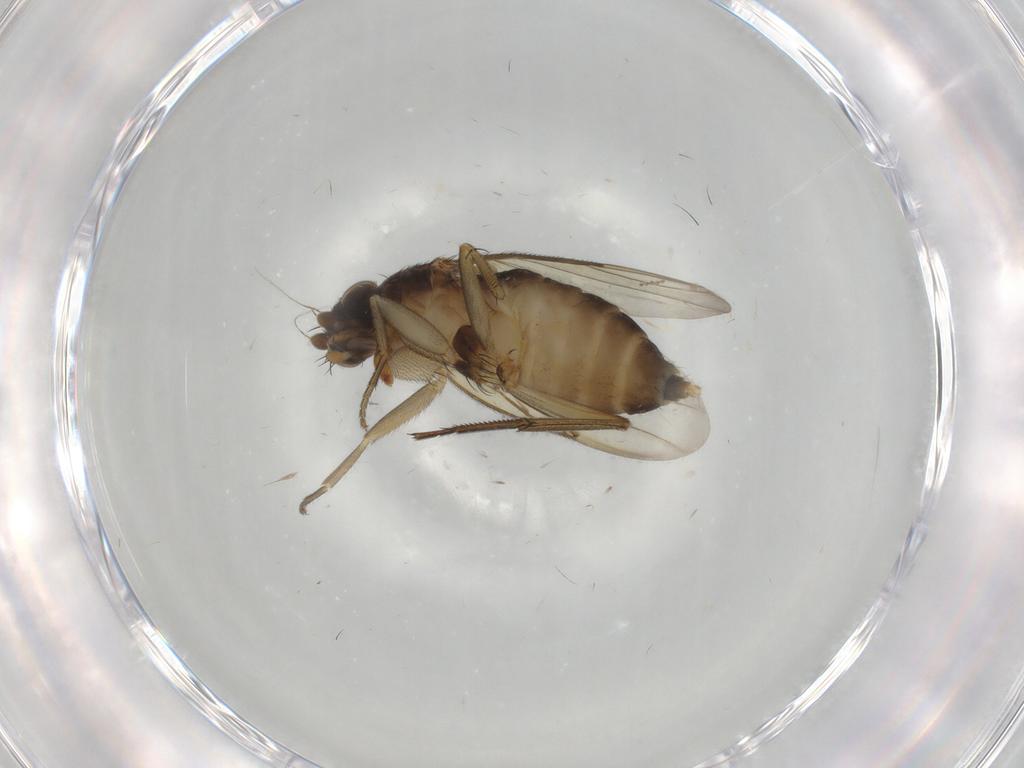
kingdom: Animalia
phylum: Arthropoda
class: Insecta
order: Diptera
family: Phoridae
